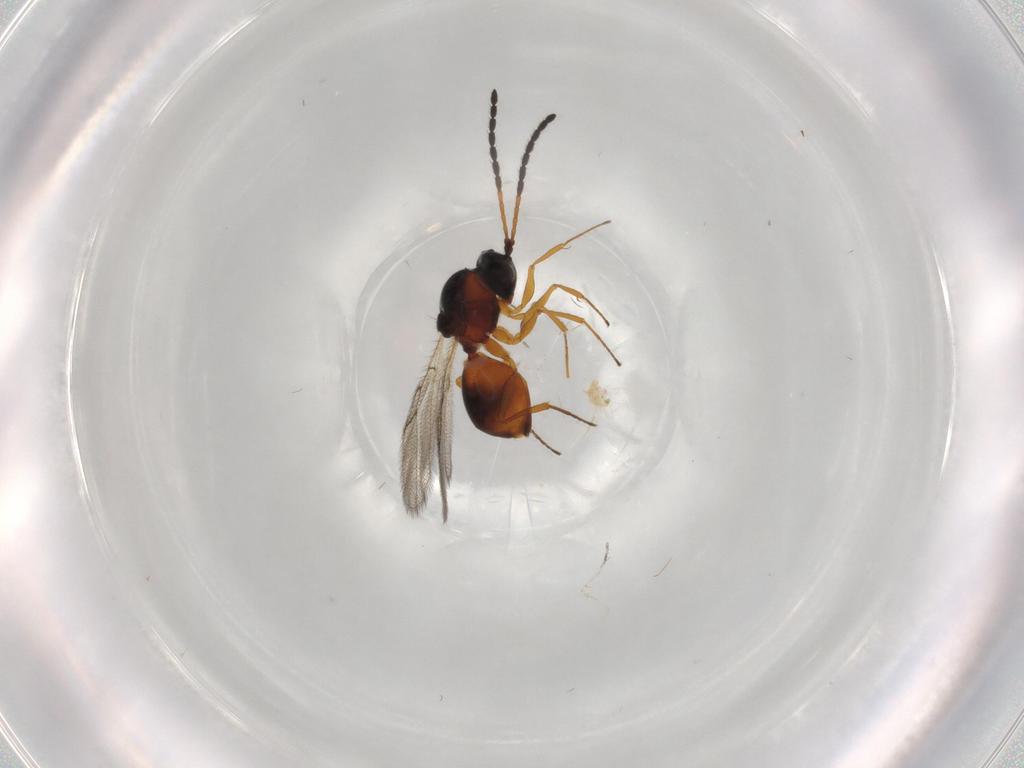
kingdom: Animalia
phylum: Arthropoda
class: Insecta
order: Hymenoptera
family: Figitidae
